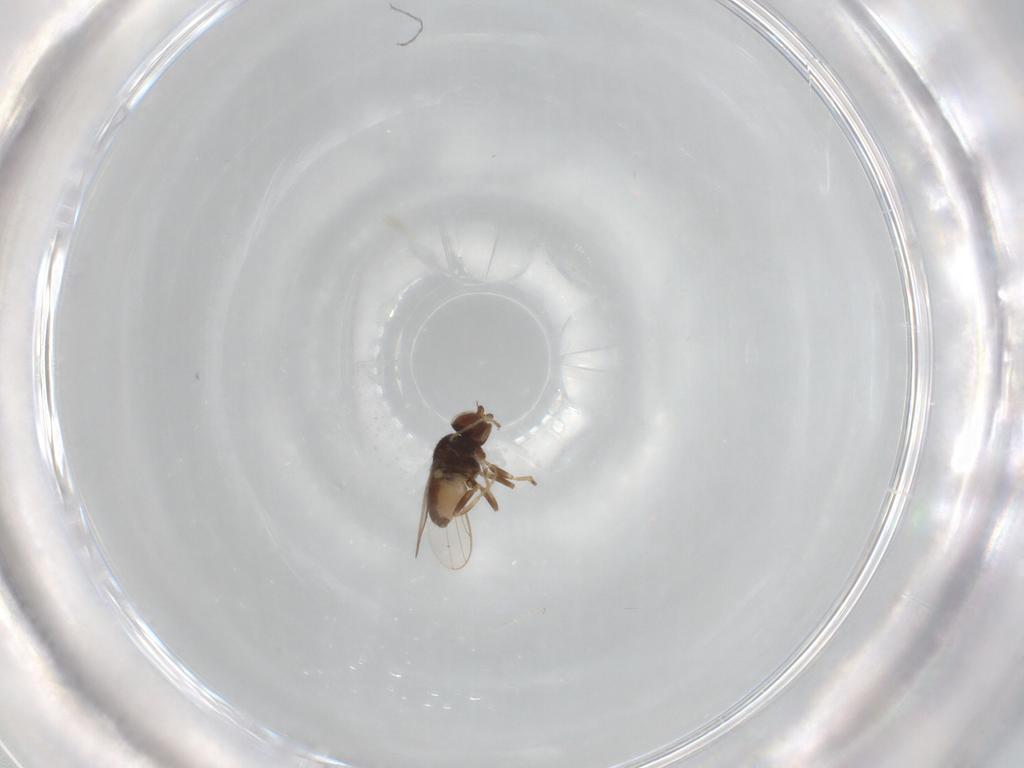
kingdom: Animalia
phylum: Arthropoda
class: Insecta
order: Diptera
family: Chloropidae
